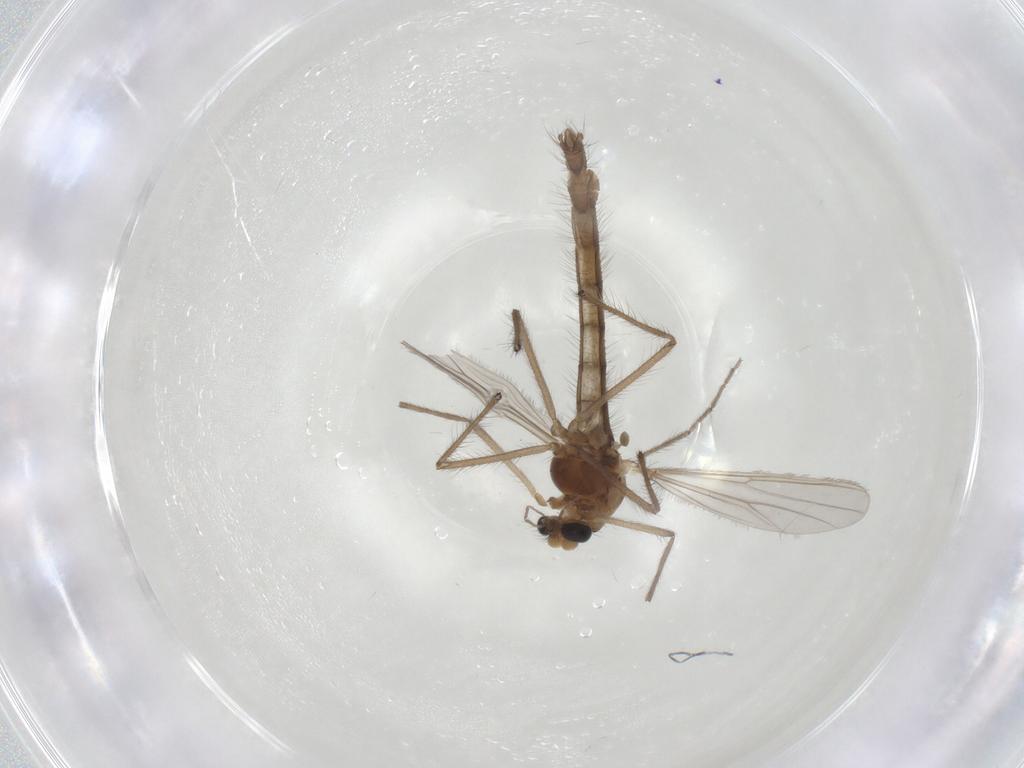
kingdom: Animalia
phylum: Arthropoda
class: Insecta
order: Diptera
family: Chironomidae
